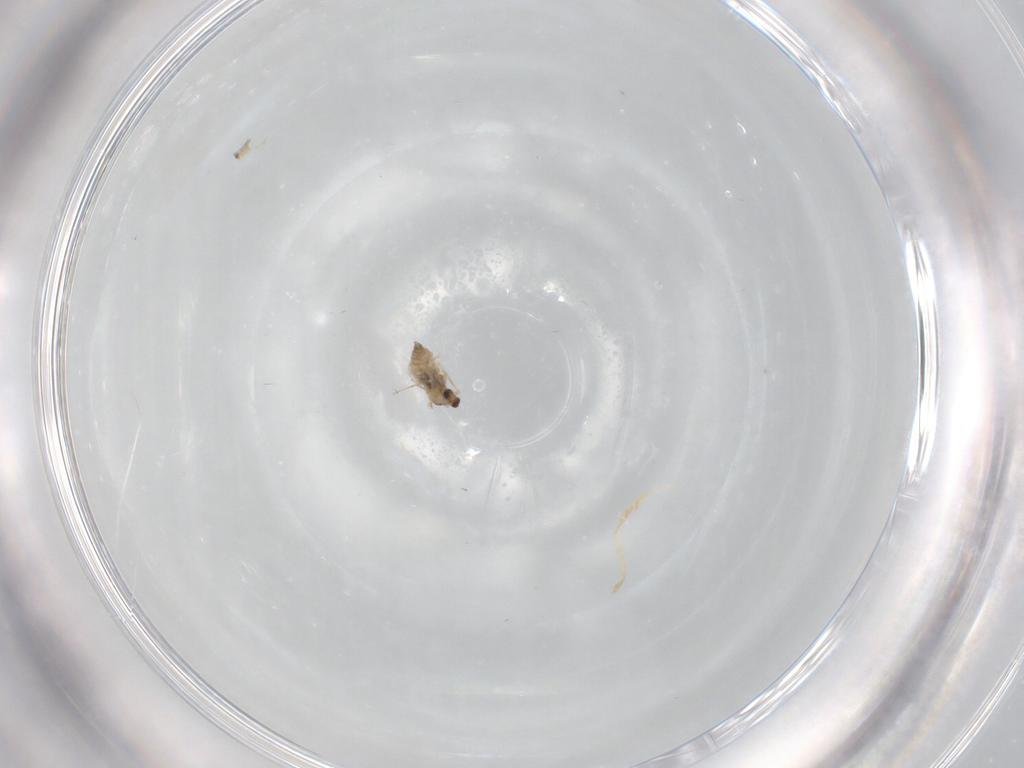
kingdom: Animalia
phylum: Arthropoda
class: Insecta
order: Diptera
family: Cecidomyiidae
